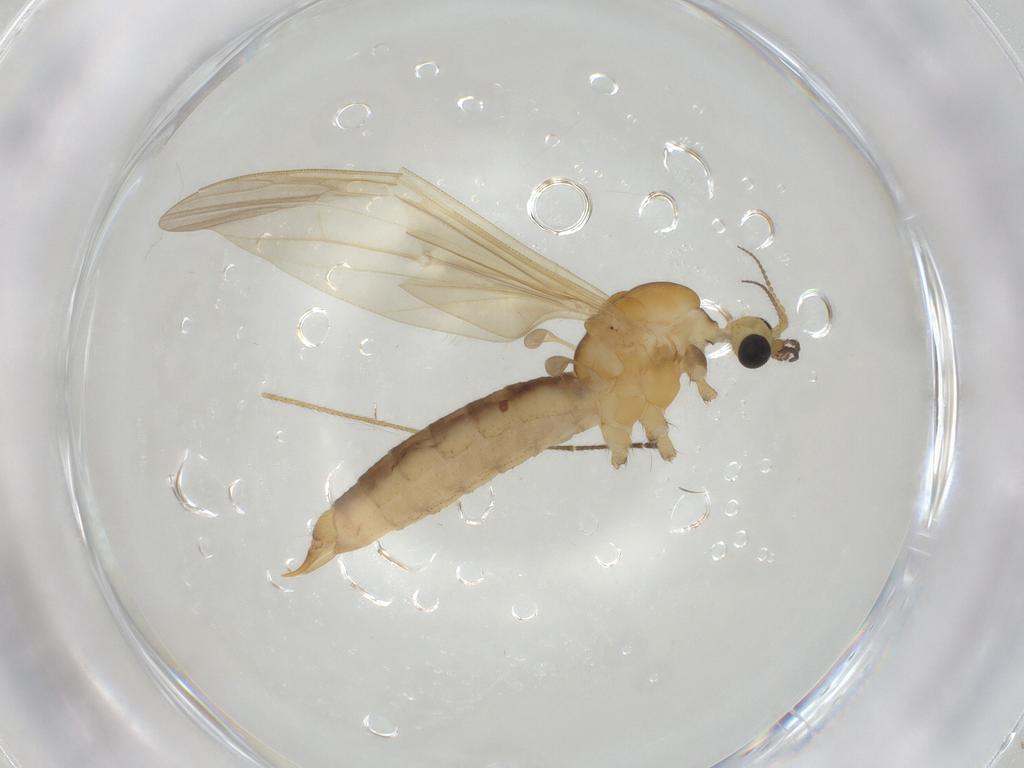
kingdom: Animalia
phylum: Arthropoda
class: Insecta
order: Diptera
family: Limoniidae
